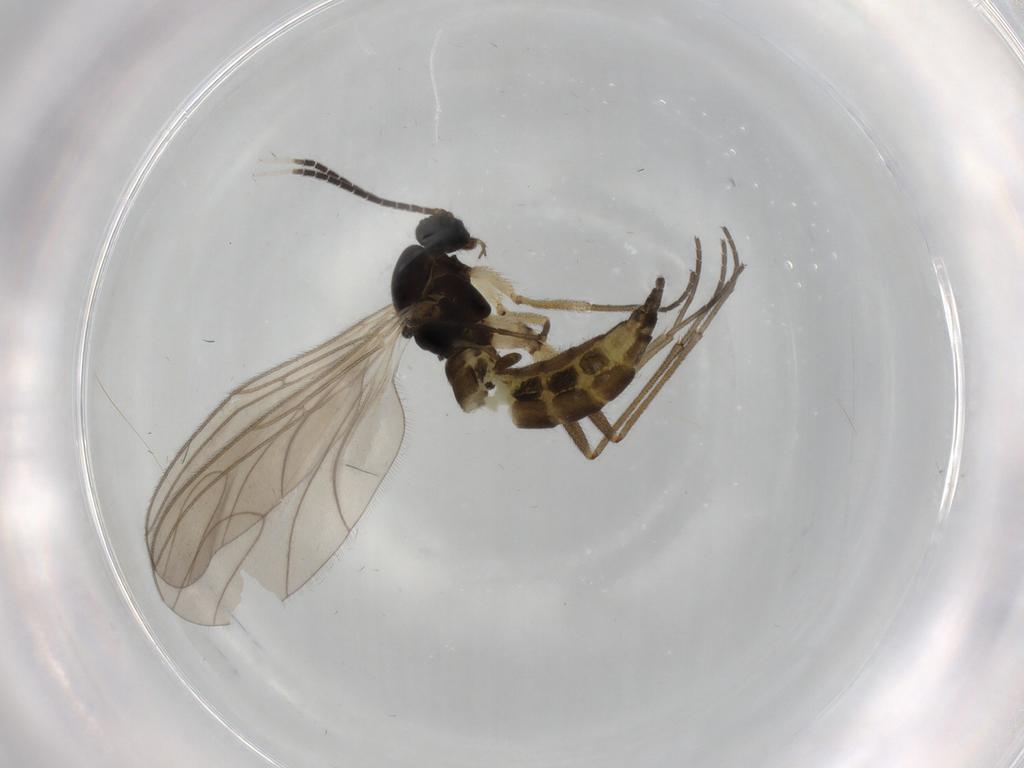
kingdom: Animalia
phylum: Arthropoda
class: Insecta
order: Diptera
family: Sciaridae
